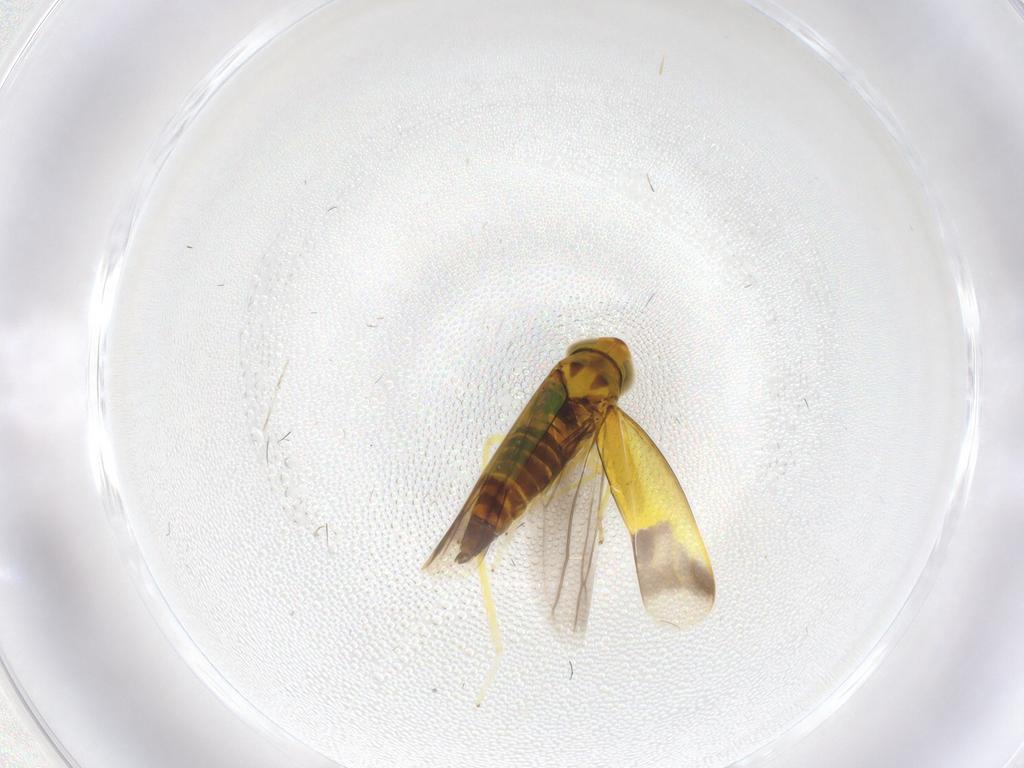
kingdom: Animalia
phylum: Arthropoda
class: Insecta
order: Hemiptera
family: Cicadellidae
